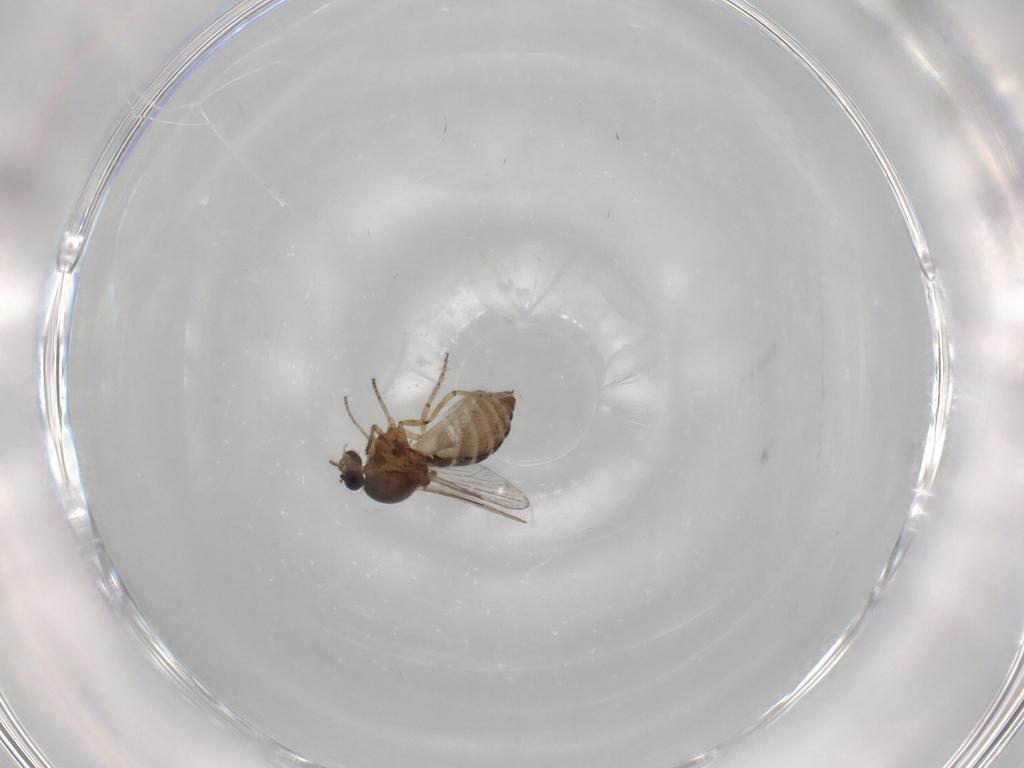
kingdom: Animalia
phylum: Arthropoda
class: Insecta
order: Diptera
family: Ceratopogonidae
